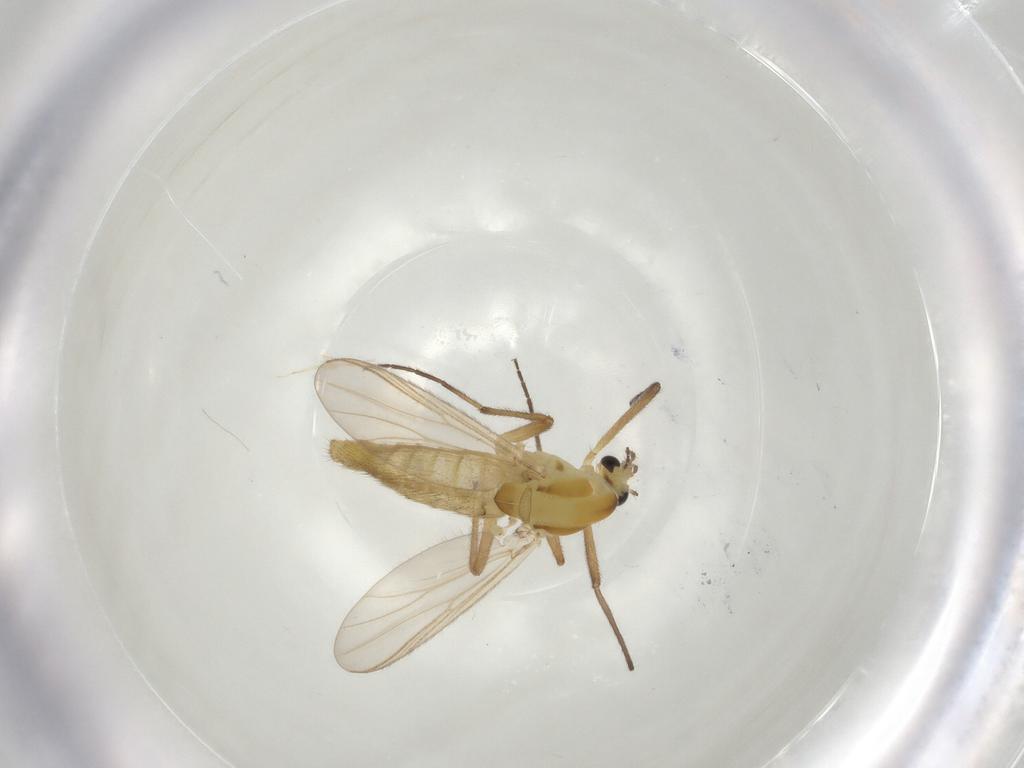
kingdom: Animalia
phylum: Arthropoda
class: Insecta
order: Diptera
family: Chironomidae
